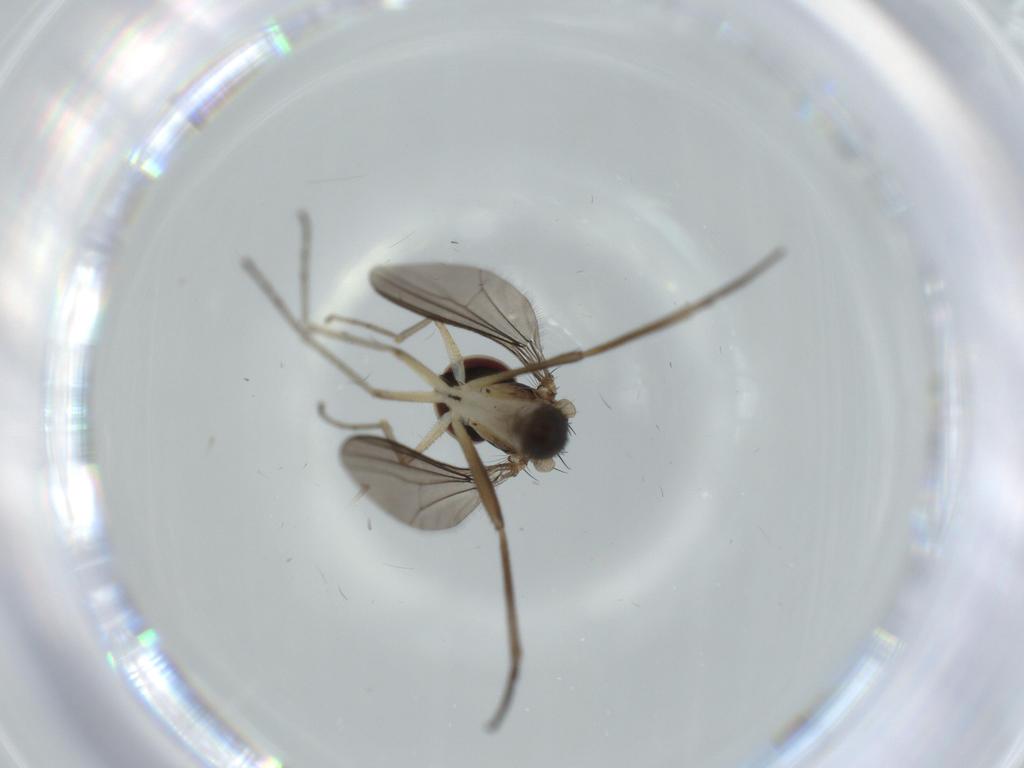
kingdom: Animalia
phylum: Arthropoda
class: Insecta
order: Diptera
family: Dolichopodidae
